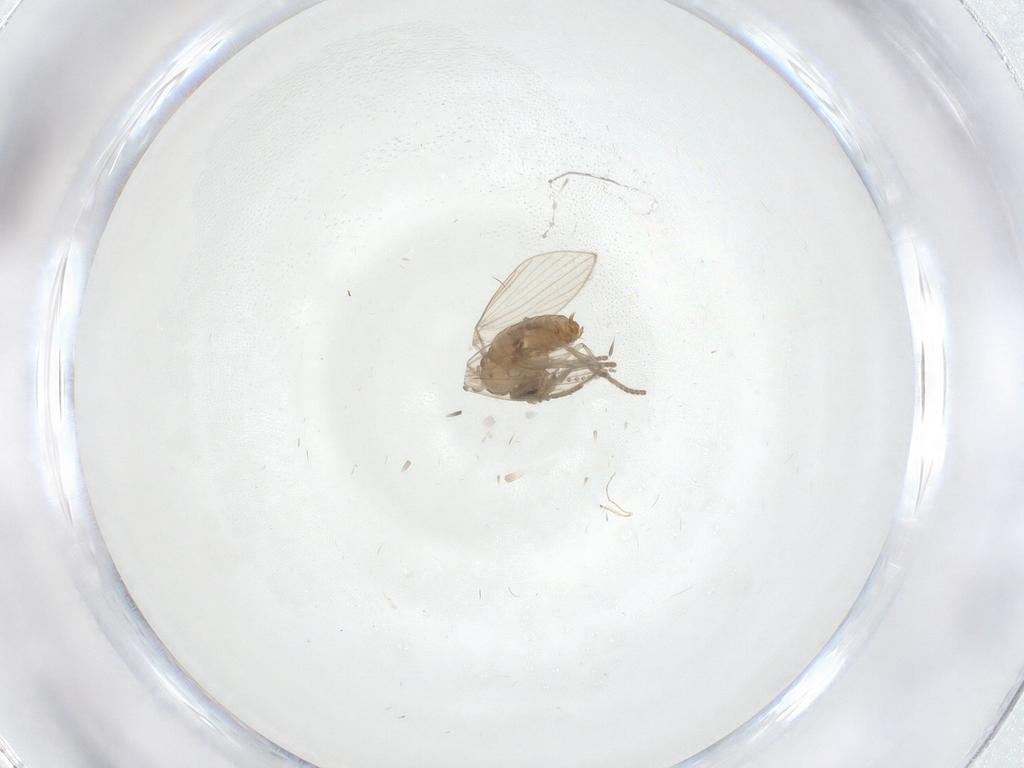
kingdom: Animalia
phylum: Arthropoda
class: Insecta
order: Diptera
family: Psychodidae
